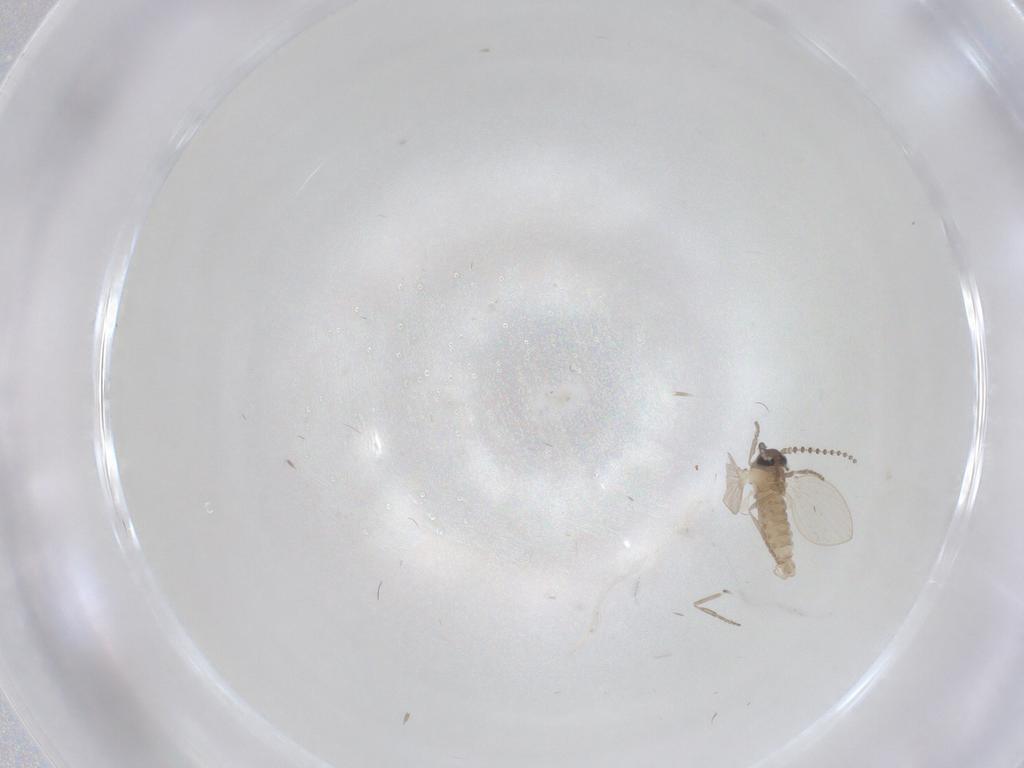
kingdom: Animalia
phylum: Arthropoda
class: Insecta
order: Diptera
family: Psychodidae
